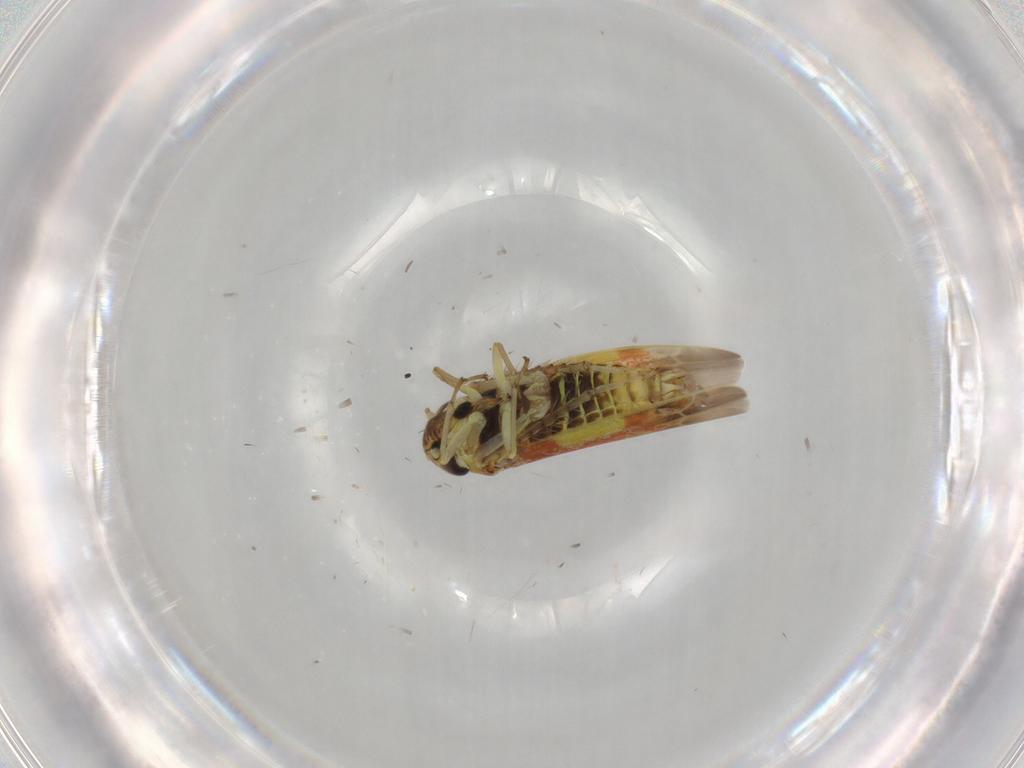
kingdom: Animalia
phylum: Arthropoda
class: Insecta
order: Hemiptera
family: Cicadellidae
